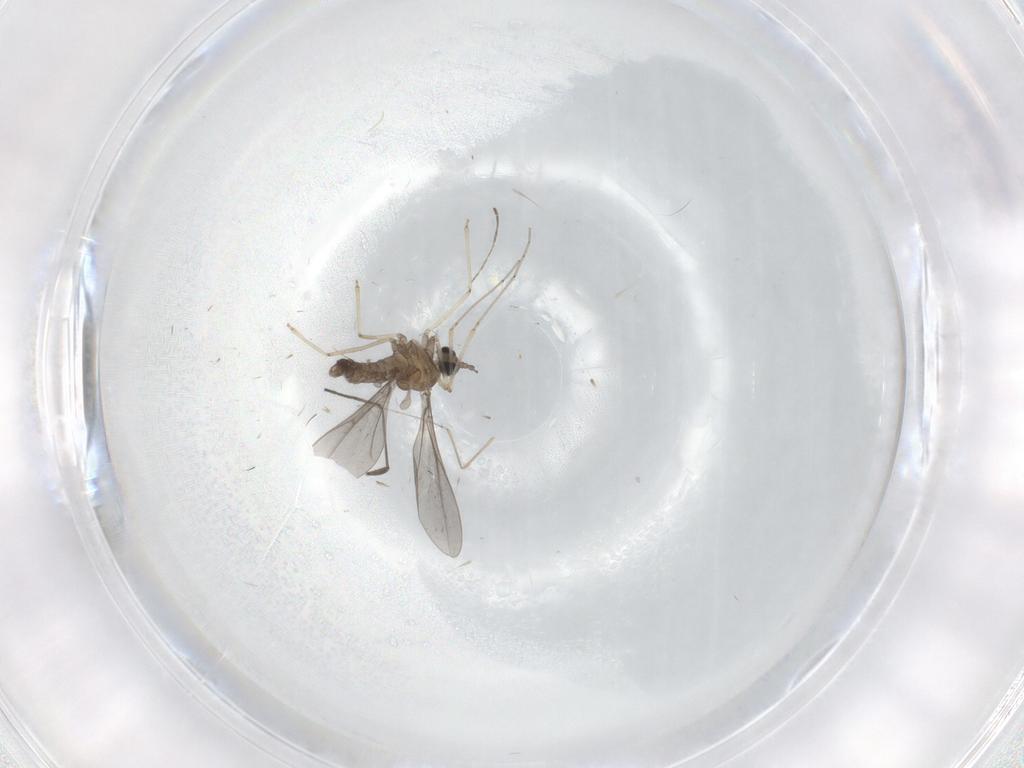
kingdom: Animalia
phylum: Arthropoda
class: Insecta
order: Diptera
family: Cecidomyiidae
